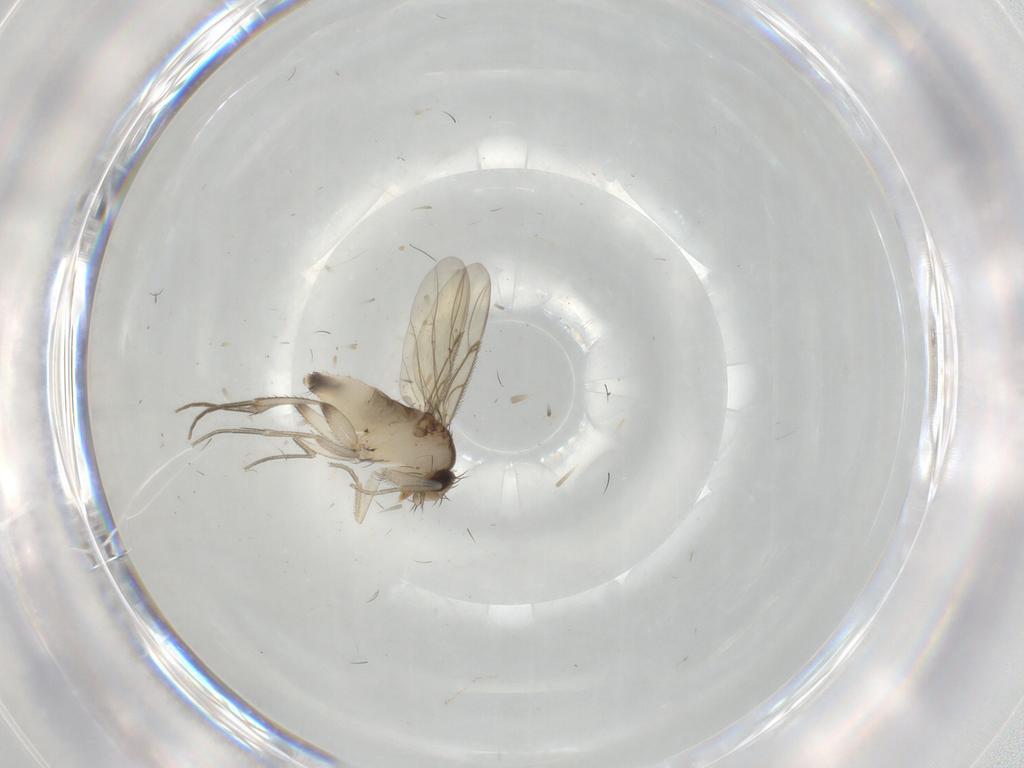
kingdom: Animalia
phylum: Arthropoda
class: Insecta
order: Diptera
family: Phoridae
